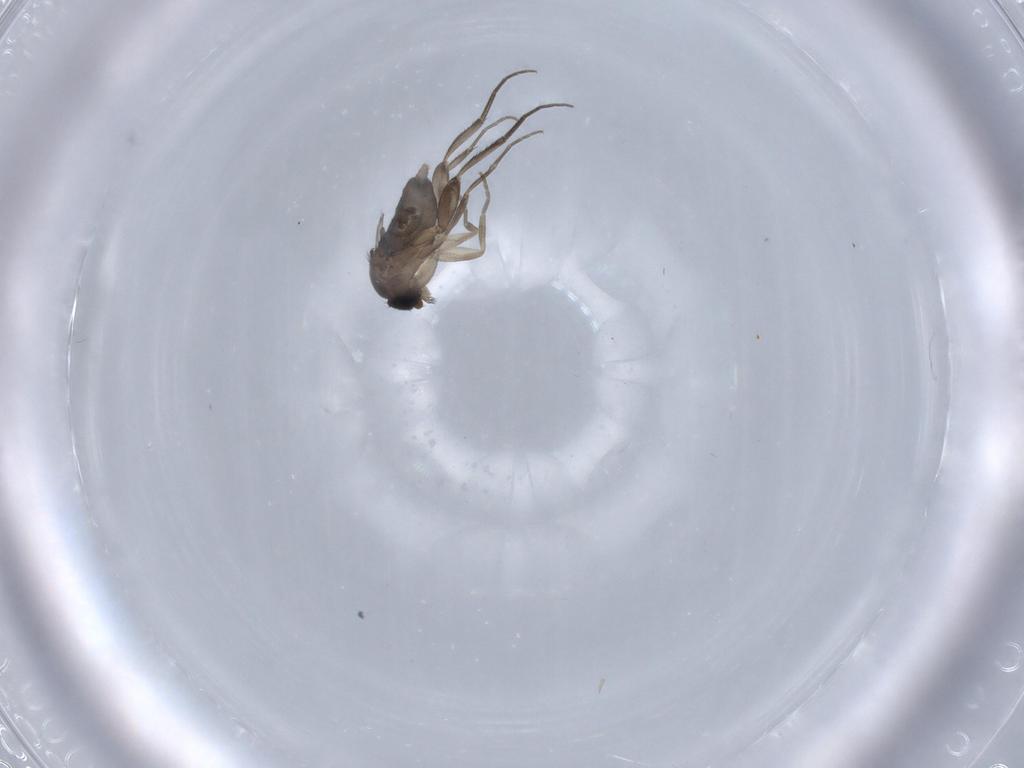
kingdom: Animalia
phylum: Arthropoda
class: Insecta
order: Diptera
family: Phoridae
